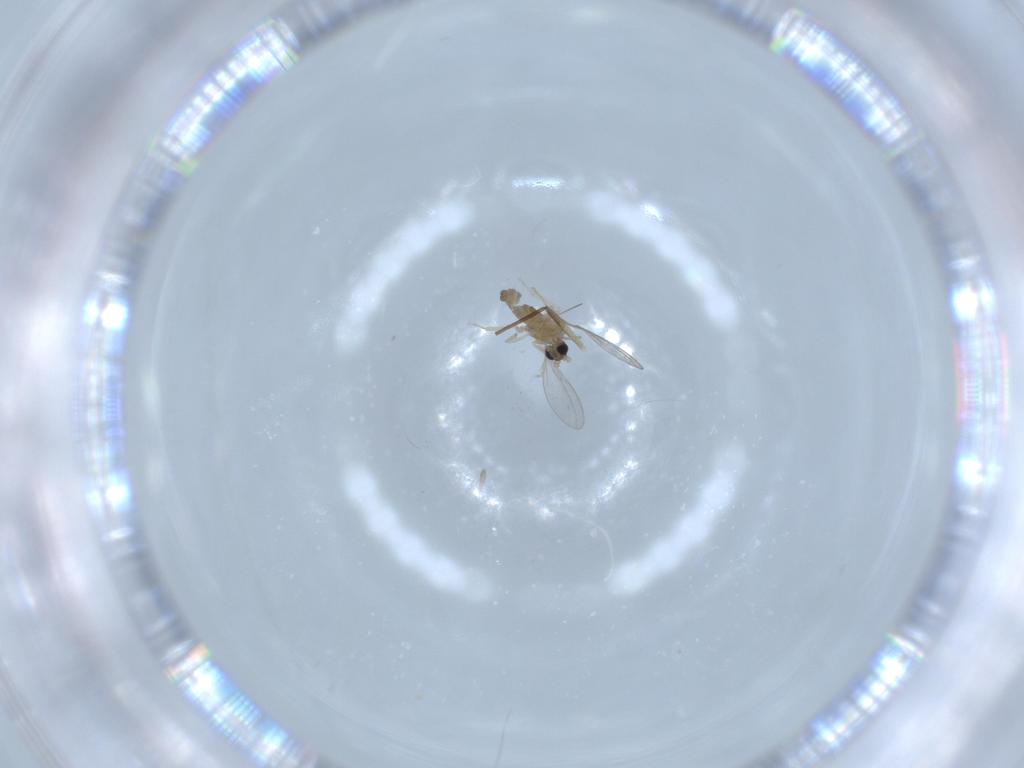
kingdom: Animalia
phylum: Arthropoda
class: Insecta
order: Diptera
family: Cecidomyiidae
